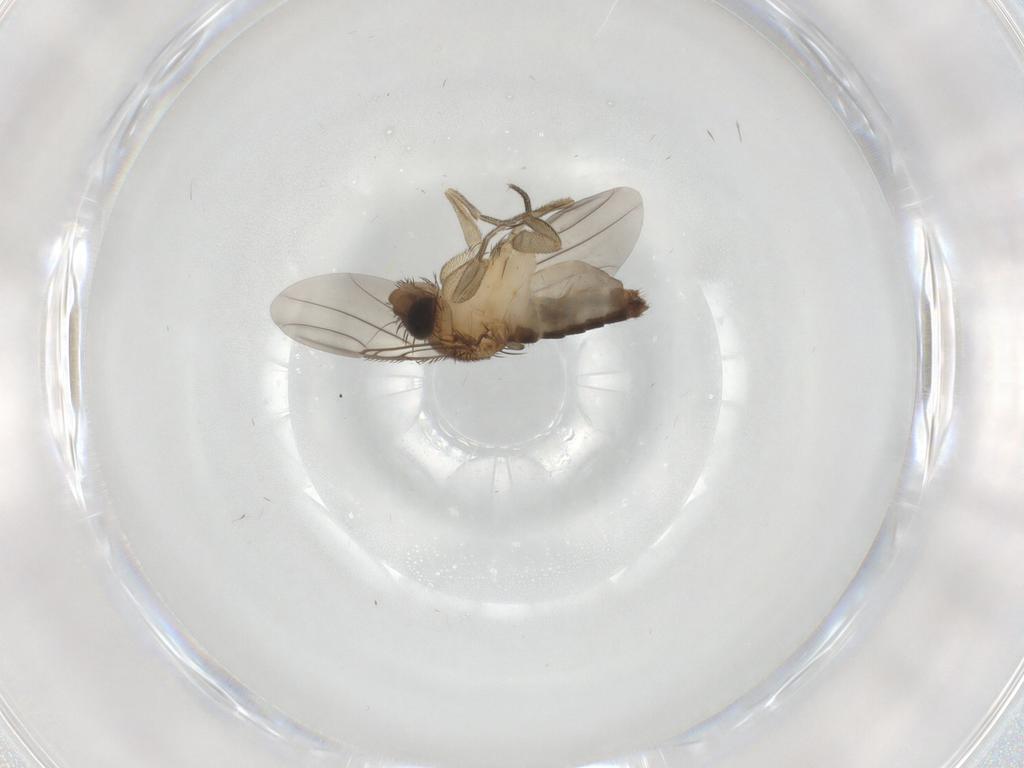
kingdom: Animalia
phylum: Arthropoda
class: Insecta
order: Diptera
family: Phoridae
